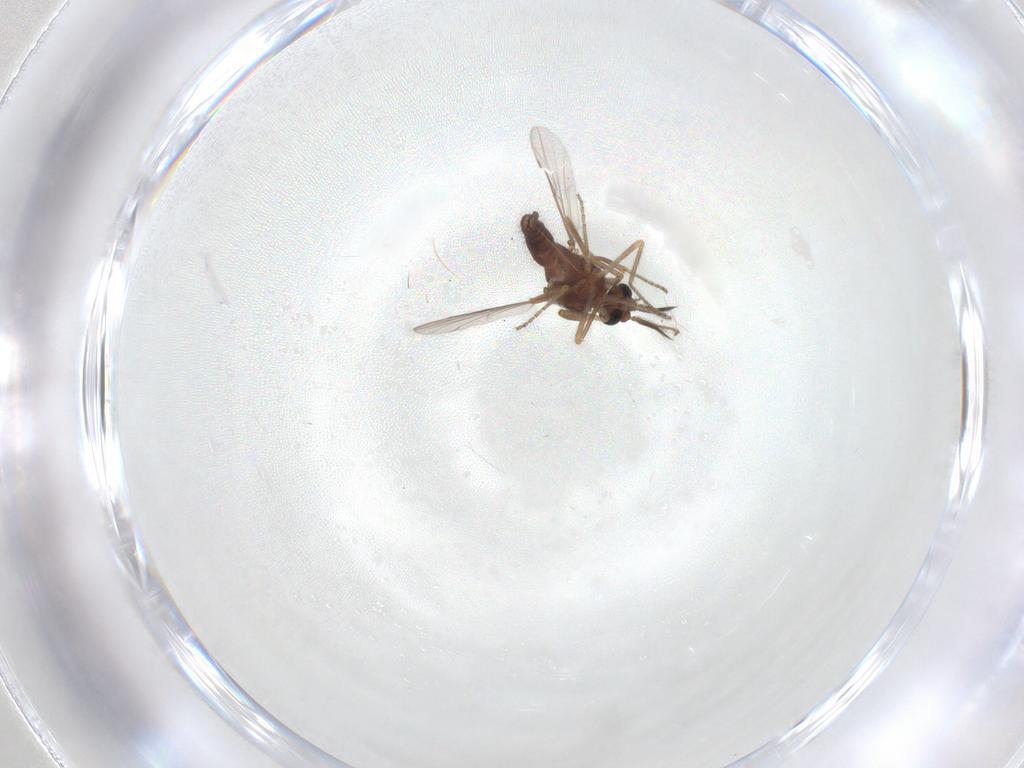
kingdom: Animalia
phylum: Arthropoda
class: Insecta
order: Diptera
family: Ceratopogonidae
